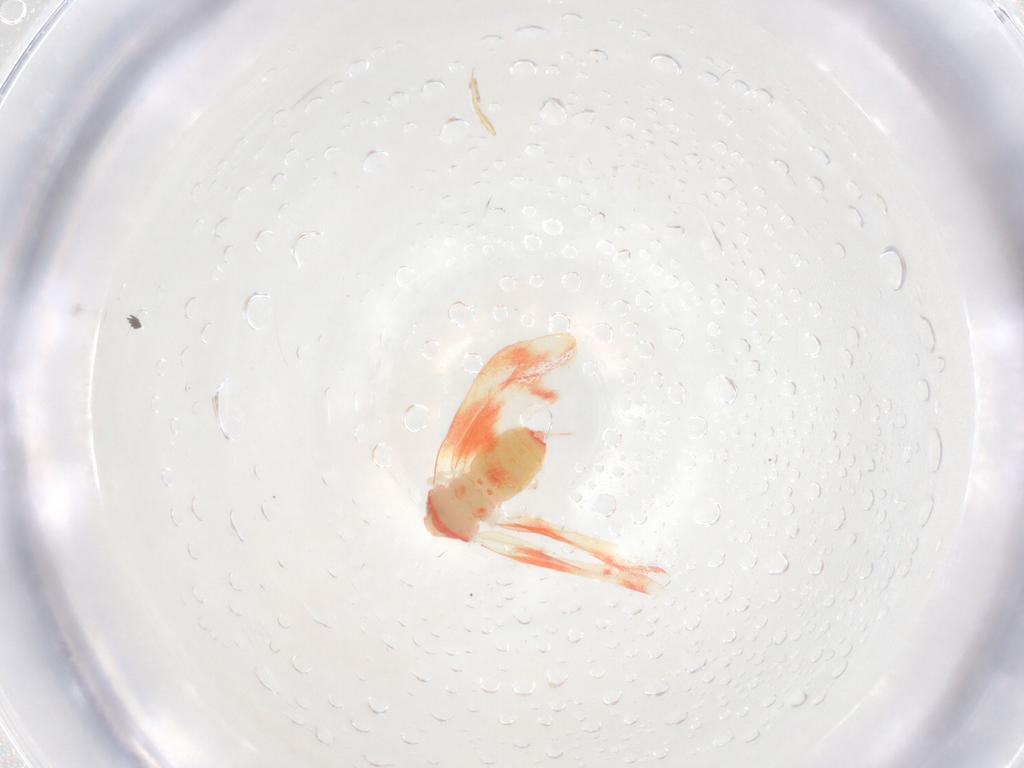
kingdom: Animalia
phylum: Arthropoda
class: Insecta
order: Hemiptera
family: Aleyrodidae
